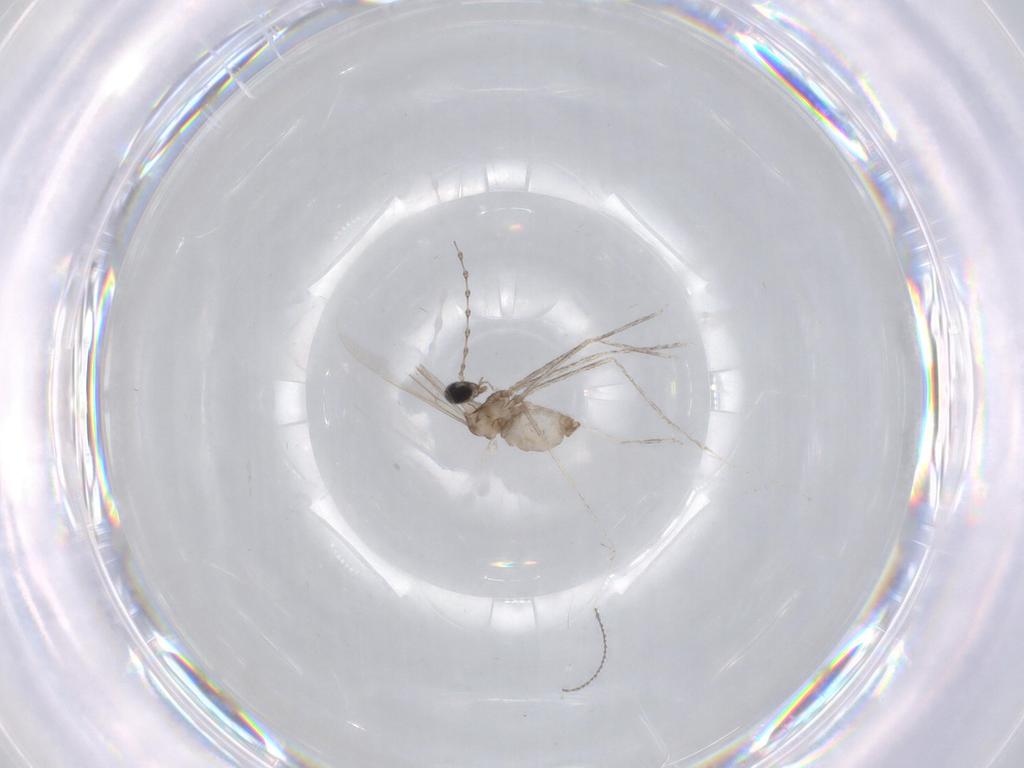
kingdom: Animalia
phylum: Arthropoda
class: Insecta
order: Diptera
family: Cecidomyiidae
